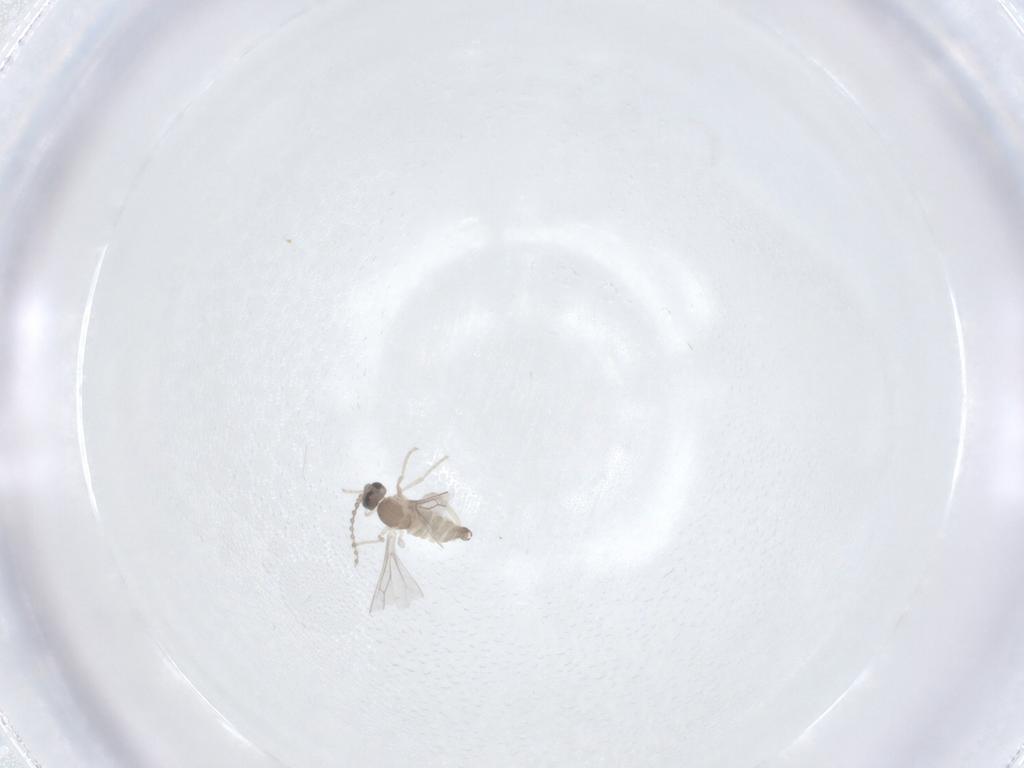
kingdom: Animalia
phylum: Arthropoda
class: Insecta
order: Diptera
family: Cecidomyiidae
